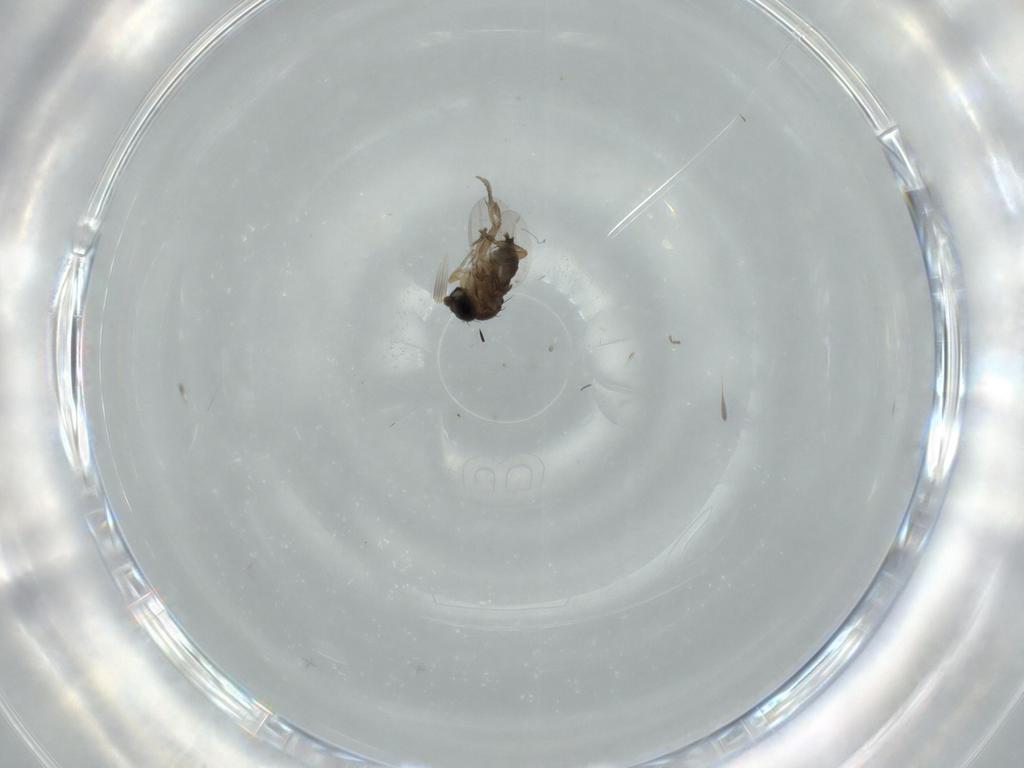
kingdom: Animalia
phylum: Arthropoda
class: Insecta
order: Diptera
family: Phoridae
